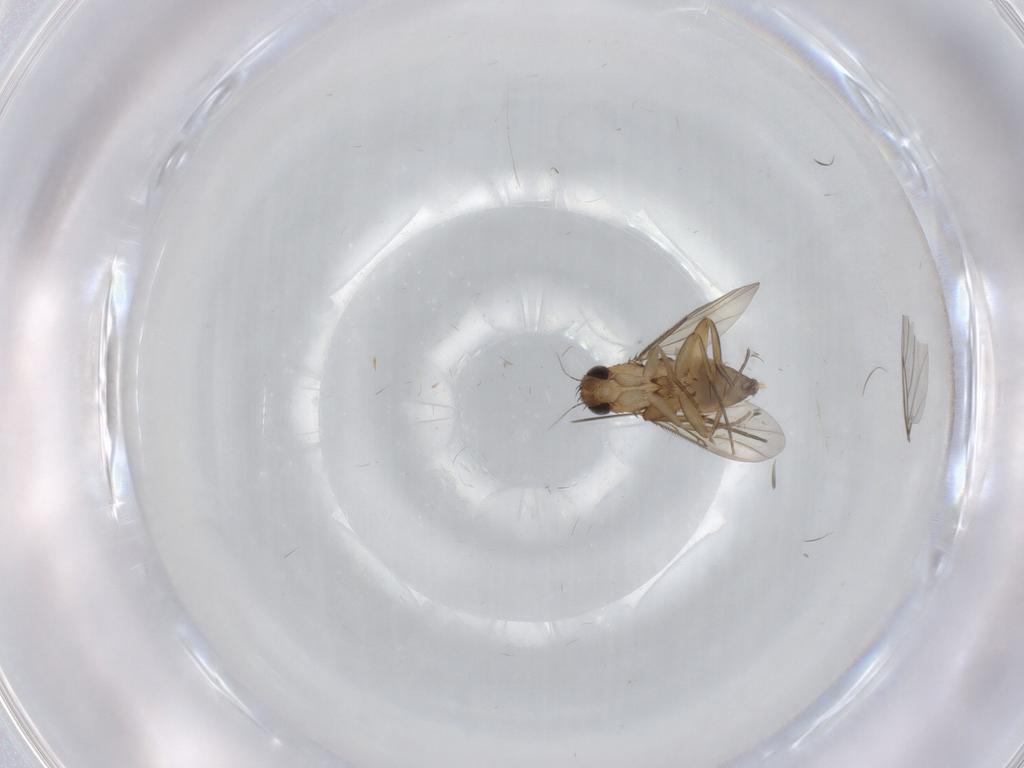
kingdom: Animalia
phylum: Arthropoda
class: Insecta
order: Diptera
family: Phoridae
